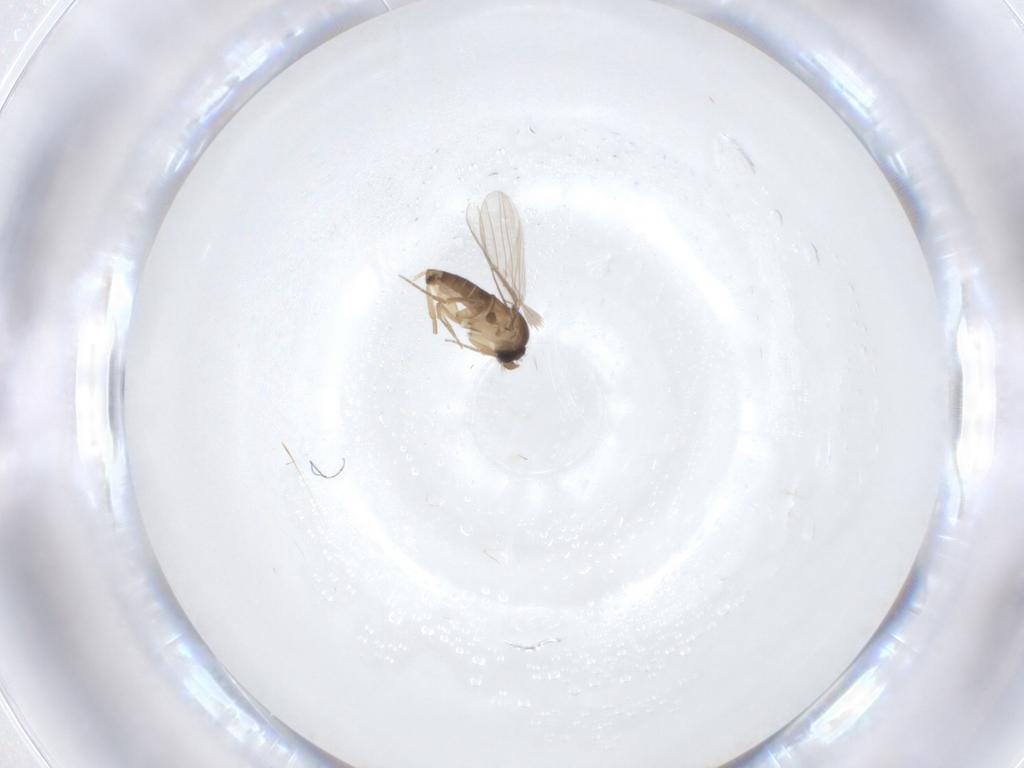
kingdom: Animalia
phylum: Arthropoda
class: Insecta
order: Diptera
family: Phoridae
